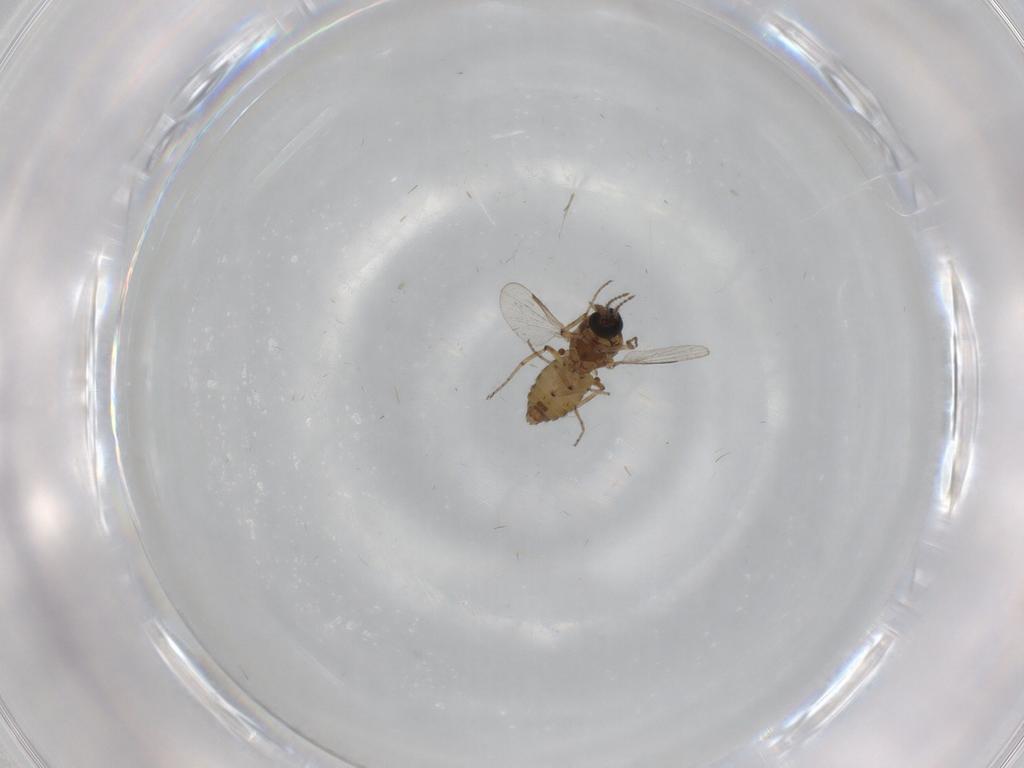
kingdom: Animalia
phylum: Arthropoda
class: Insecta
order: Diptera
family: Ceratopogonidae
